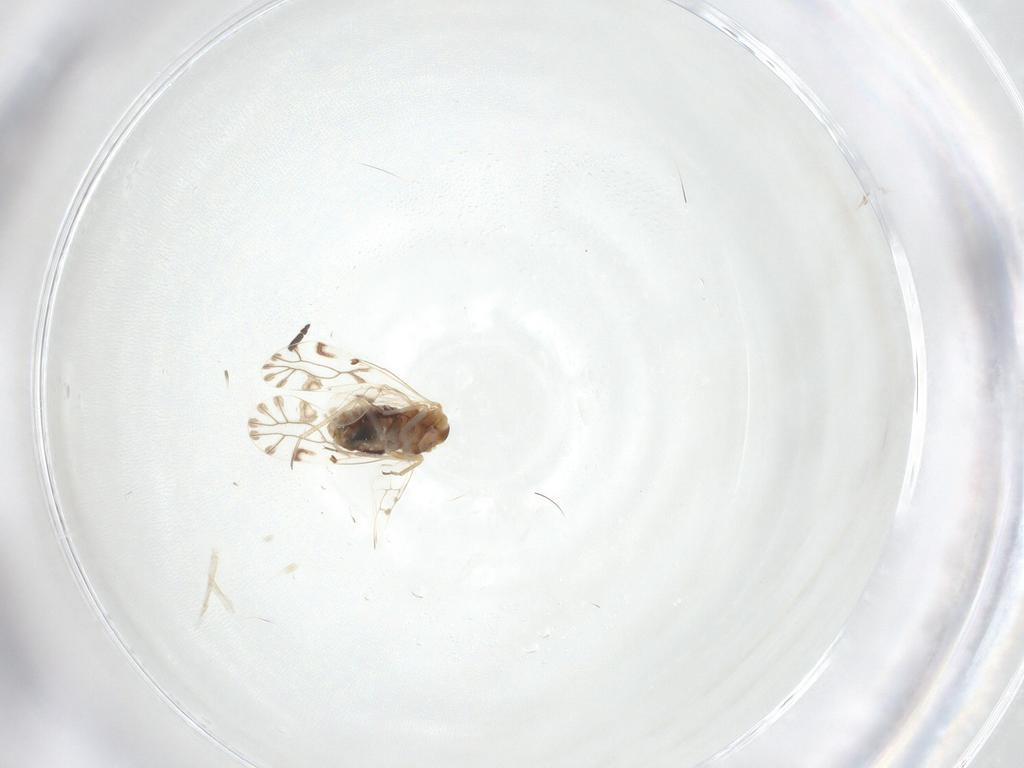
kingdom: Animalia
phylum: Arthropoda
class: Insecta
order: Psocodea
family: Lachesillidae
